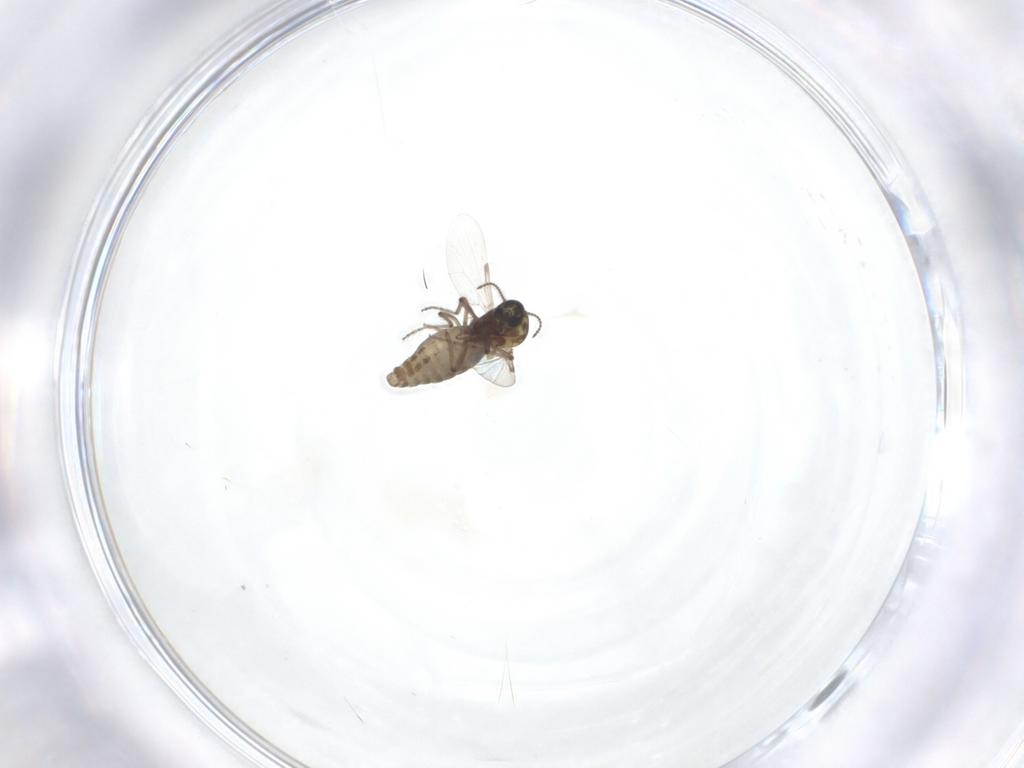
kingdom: Animalia
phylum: Arthropoda
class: Insecta
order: Diptera
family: Ceratopogonidae
